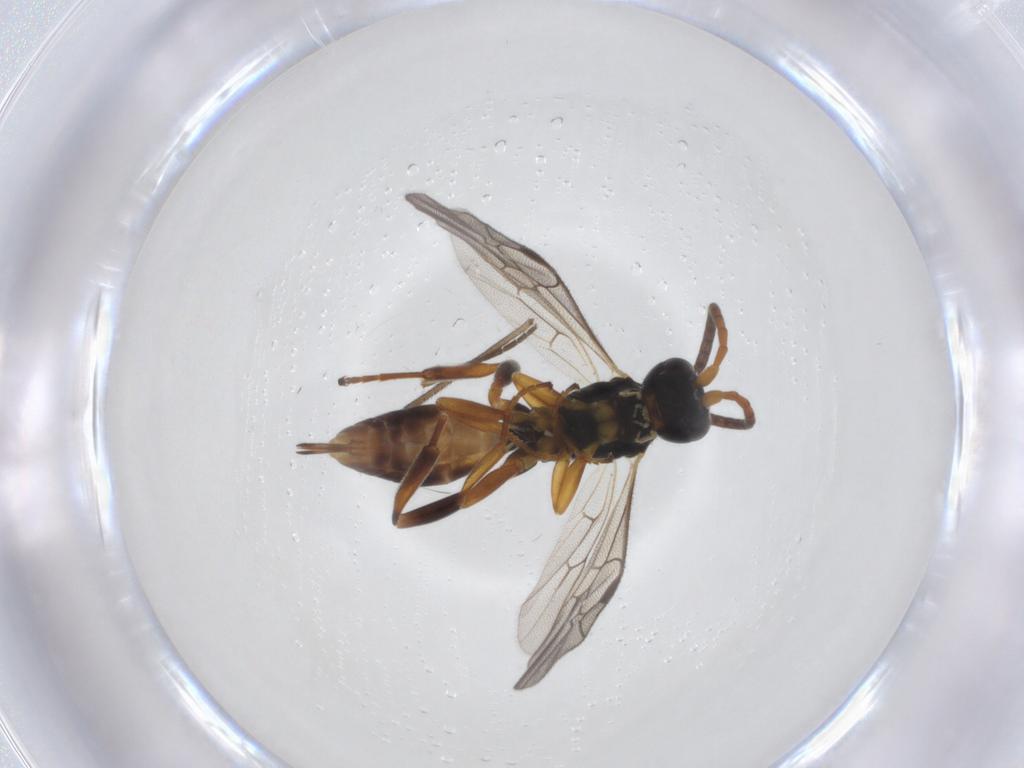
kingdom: Animalia
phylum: Arthropoda
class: Insecta
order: Hymenoptera
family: Ichneumonidae
